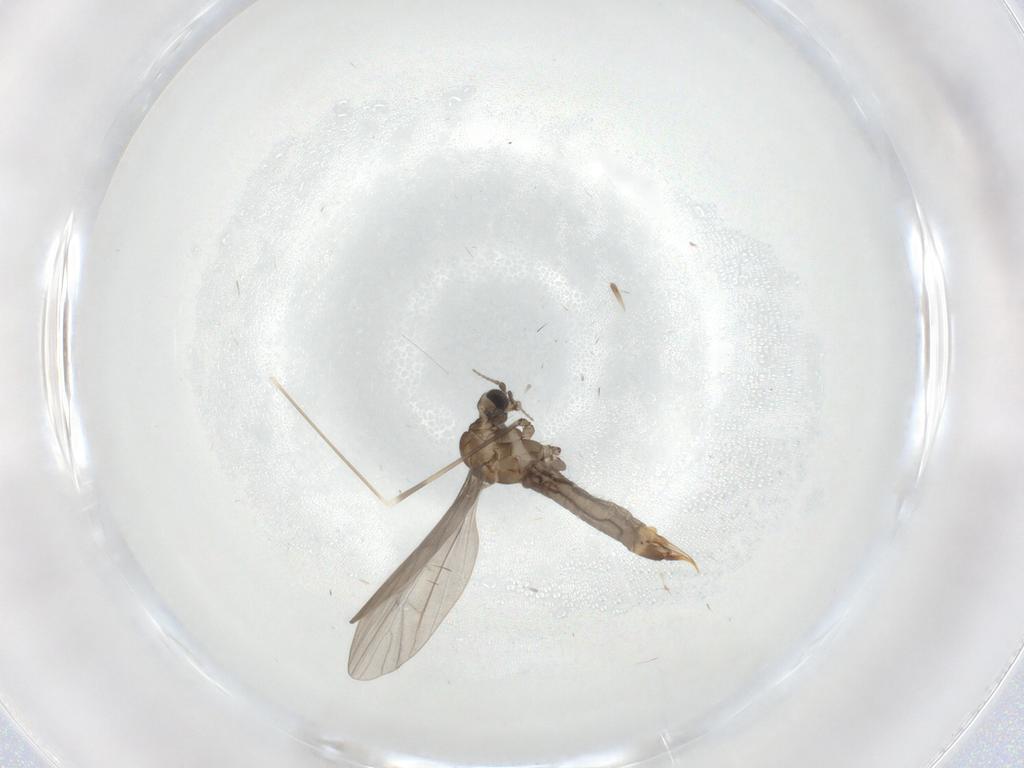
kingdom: Animalia
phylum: Arthropoda
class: Insecta
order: Diptera
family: Limoniidae
